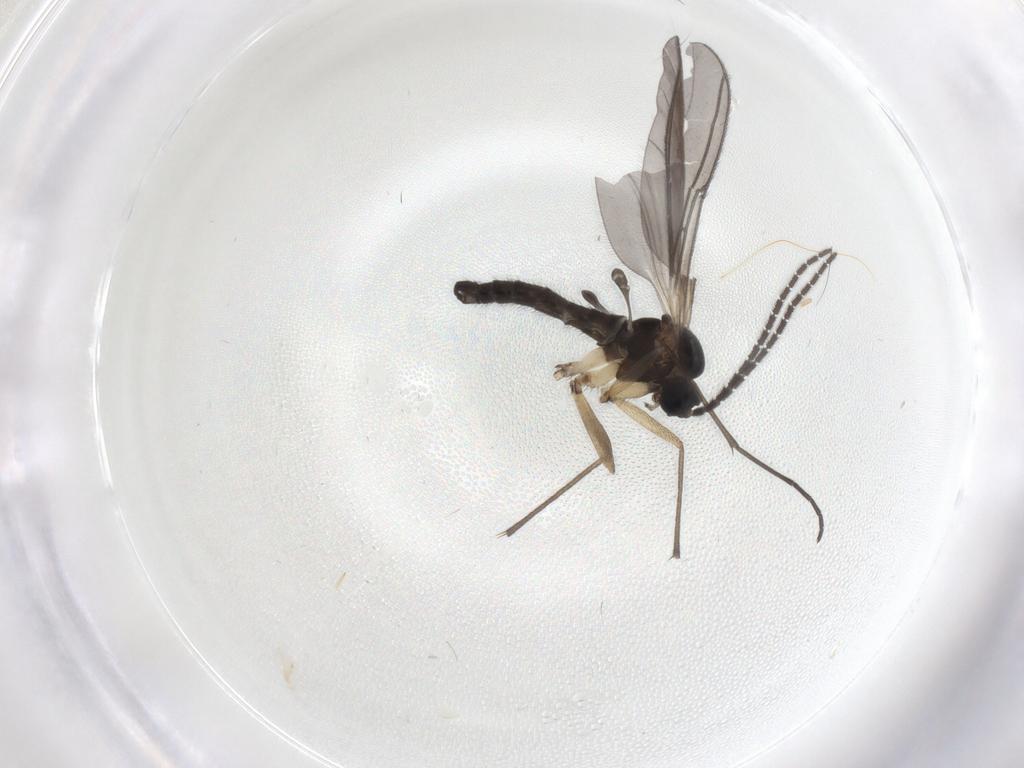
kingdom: Animalia
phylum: Arthropoda
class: Insecta
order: Diptera
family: Sciaridae
